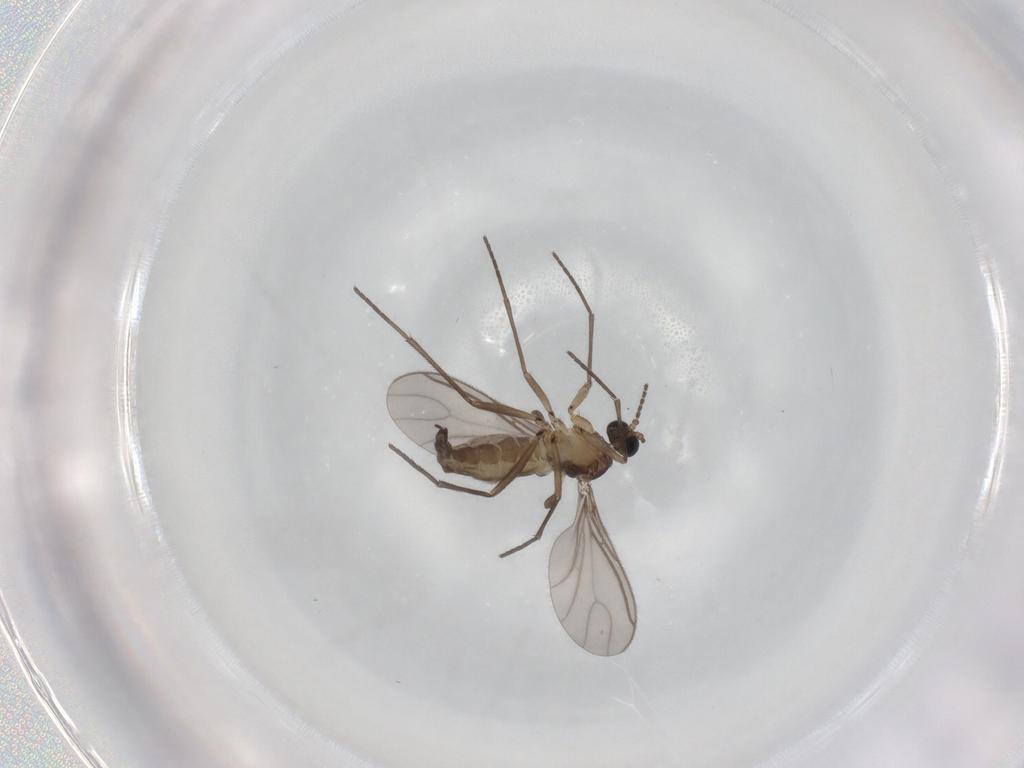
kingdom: Animalia
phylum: Arthropoda
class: Insecta
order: Diptera
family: Sciaridae
